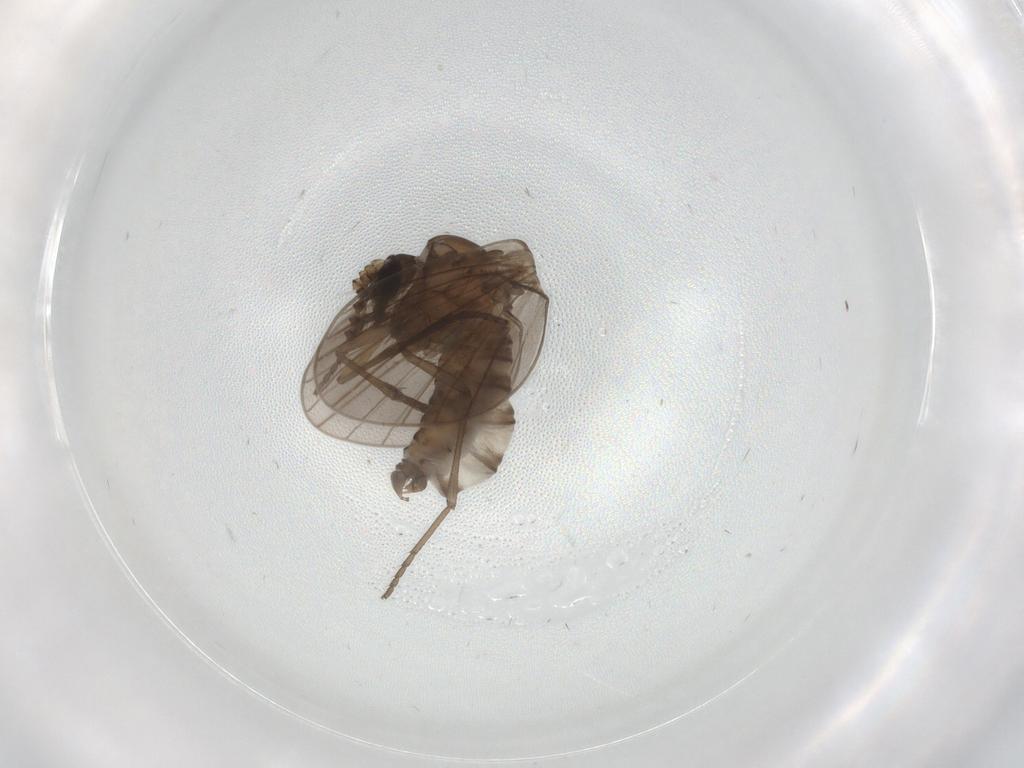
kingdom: Animalia
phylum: Arthropoda
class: Insecta
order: Diptera
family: Psychodidae
